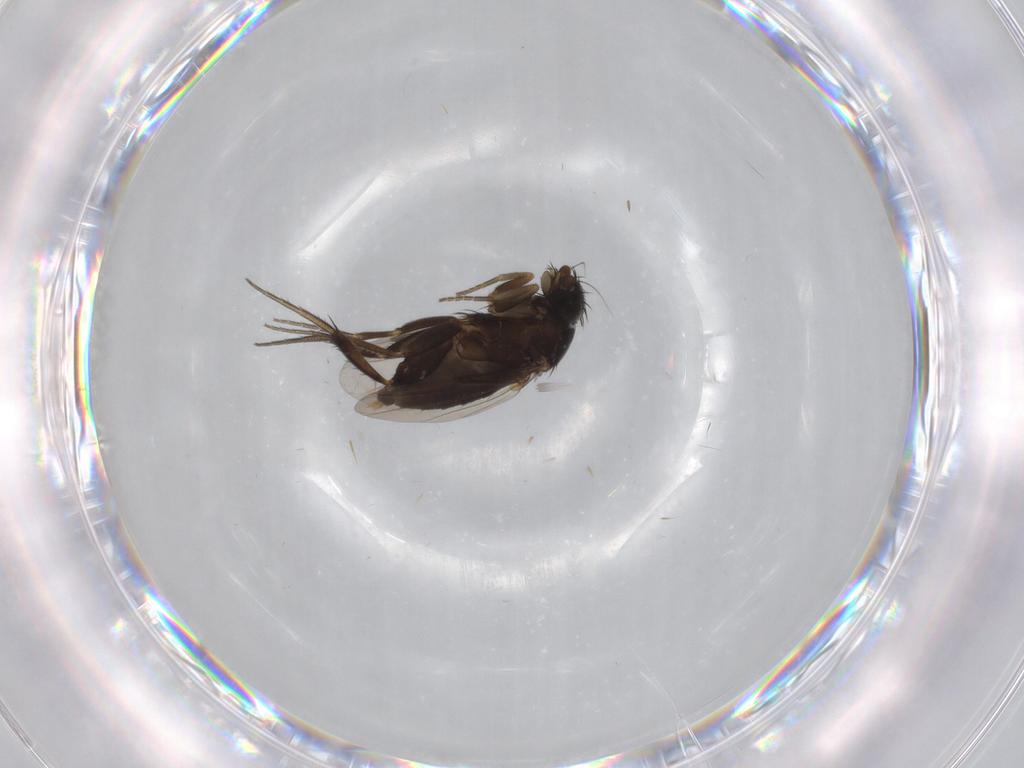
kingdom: Animalia
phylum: Arthropoda
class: Insecta
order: Diptera
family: Phoridae
